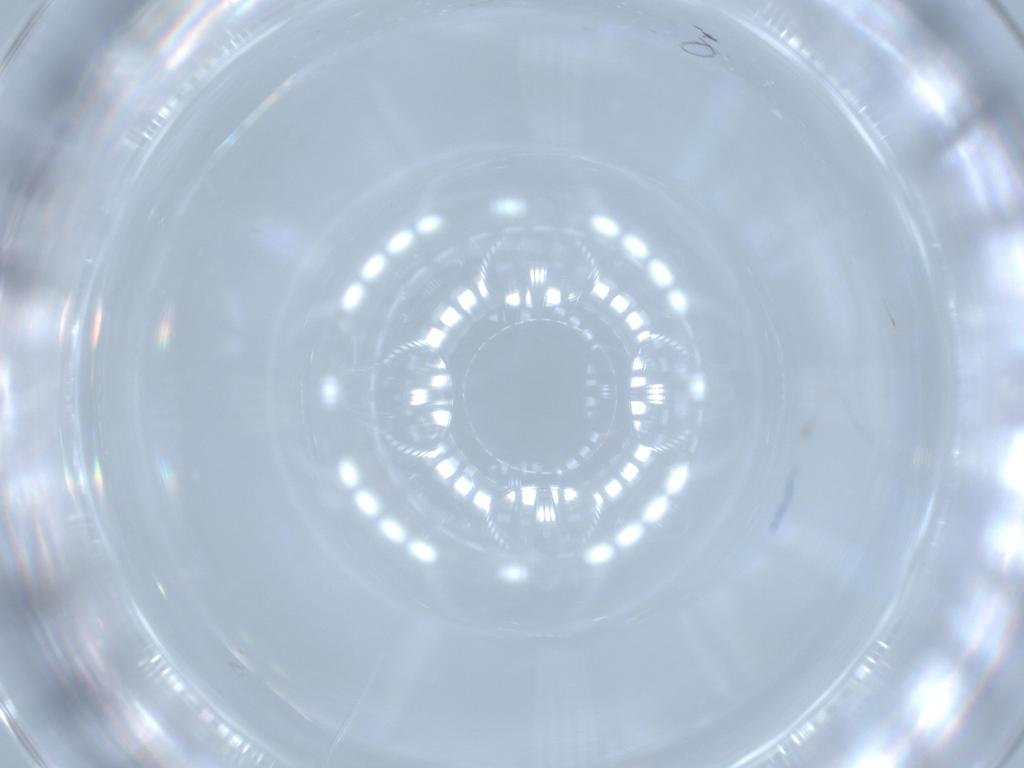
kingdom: Animalia
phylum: Arthropoda
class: Insecta
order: Diptera
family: Cecidomyiidae
